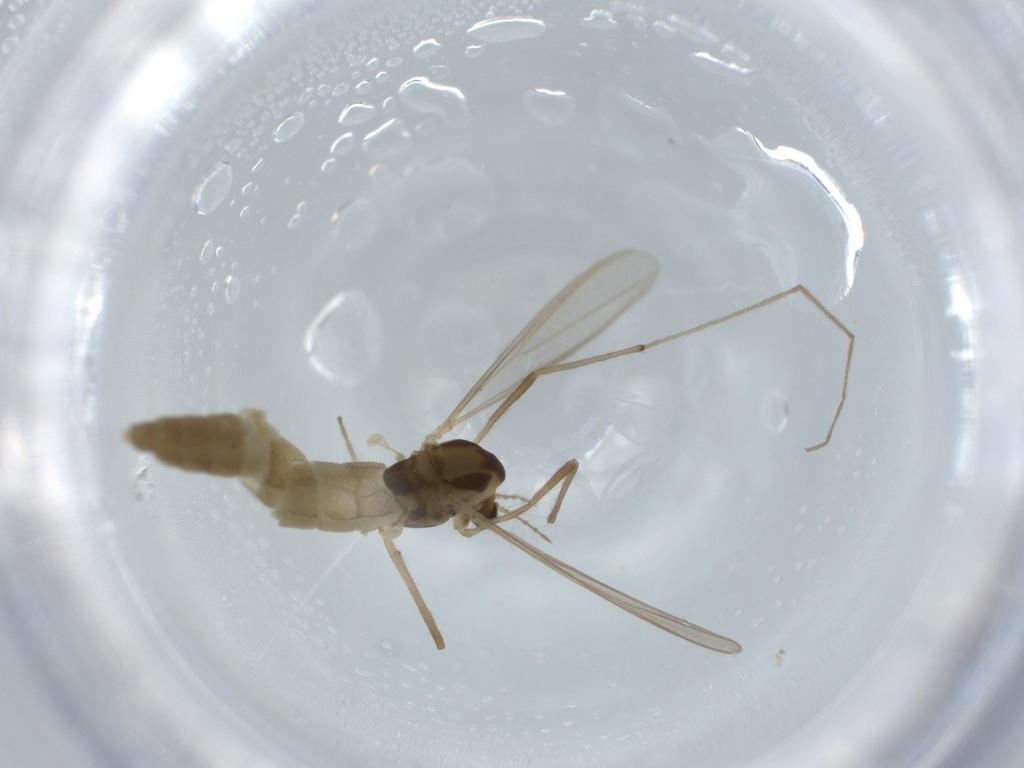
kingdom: Animalia
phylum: Arthropoda
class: Insecta
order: Diptera
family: Chironomidae
